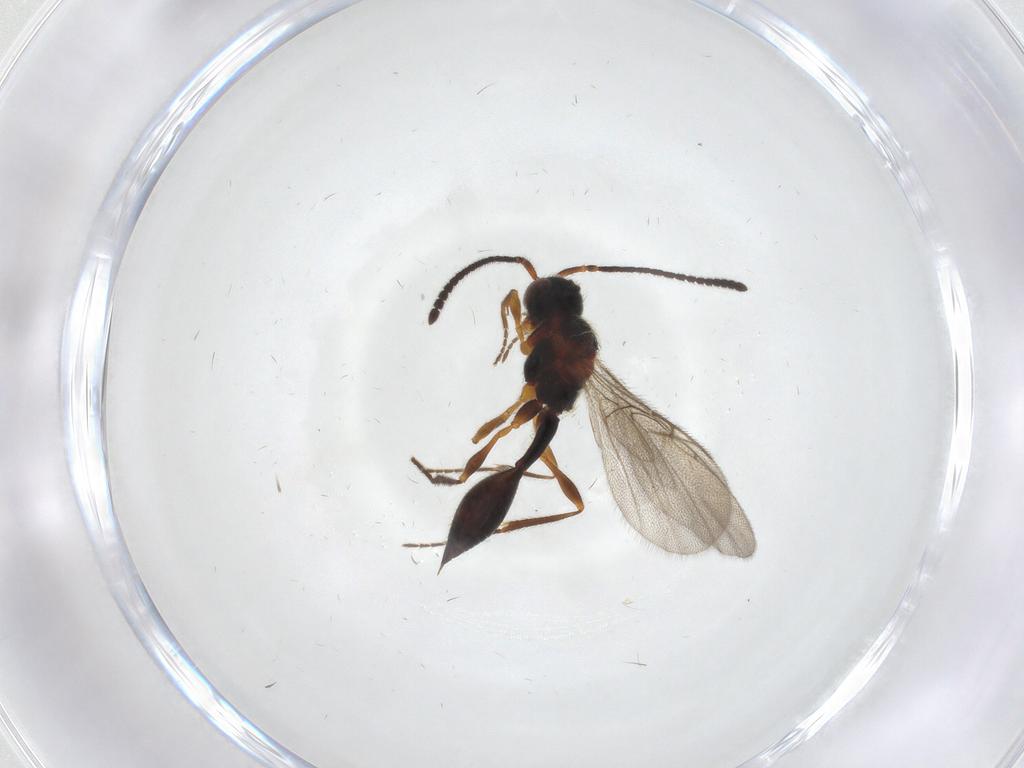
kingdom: Animalia
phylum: Arthropoda
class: Insecta
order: Hymenoptera
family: Diapriidae
